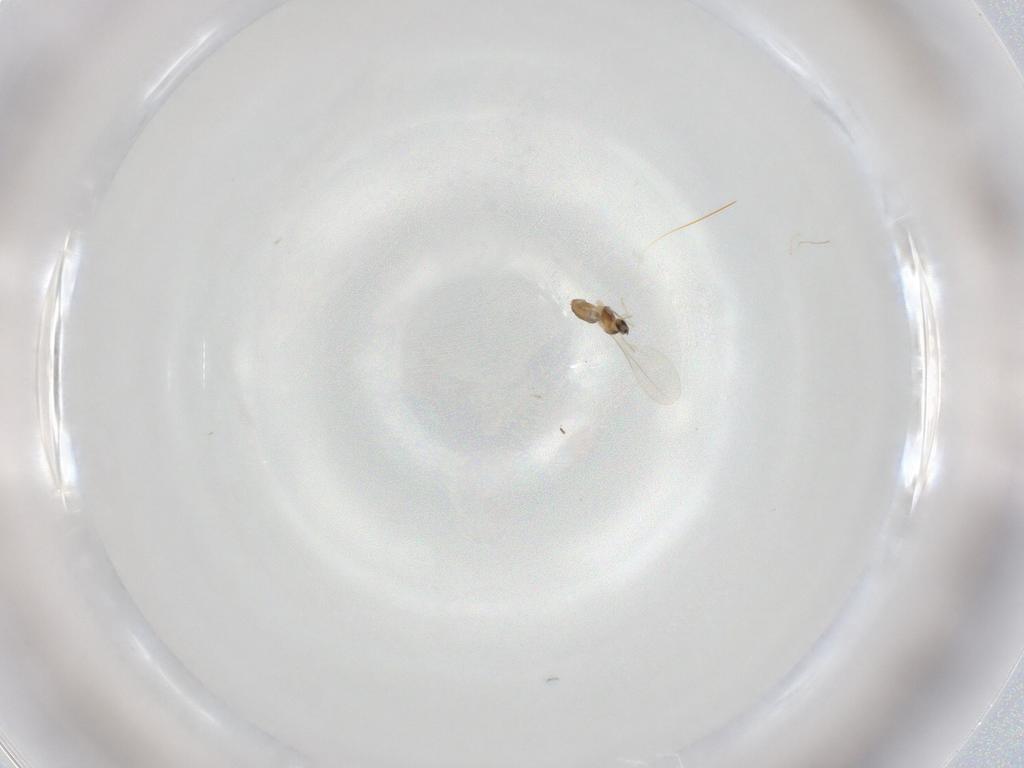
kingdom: Animalia
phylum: Arthropoda
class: Insecta
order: Diptera
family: Cecidomyiidae
